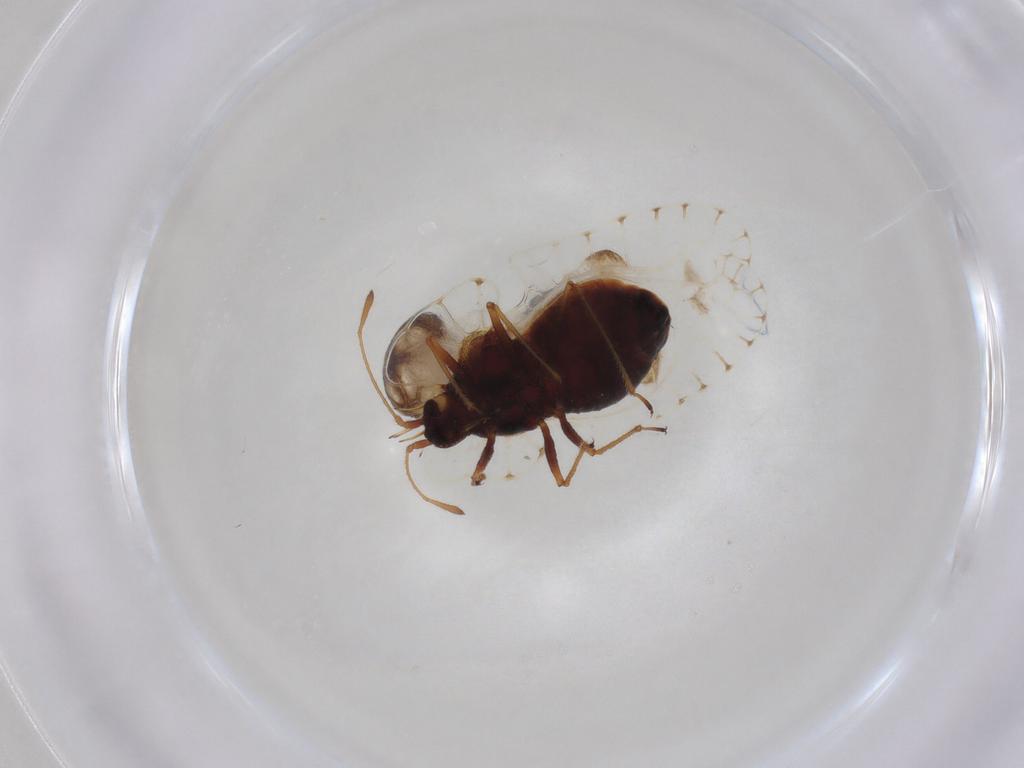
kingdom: Animalia
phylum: Arthropoda
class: Insecta
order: Hemiptera
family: Tingidae
